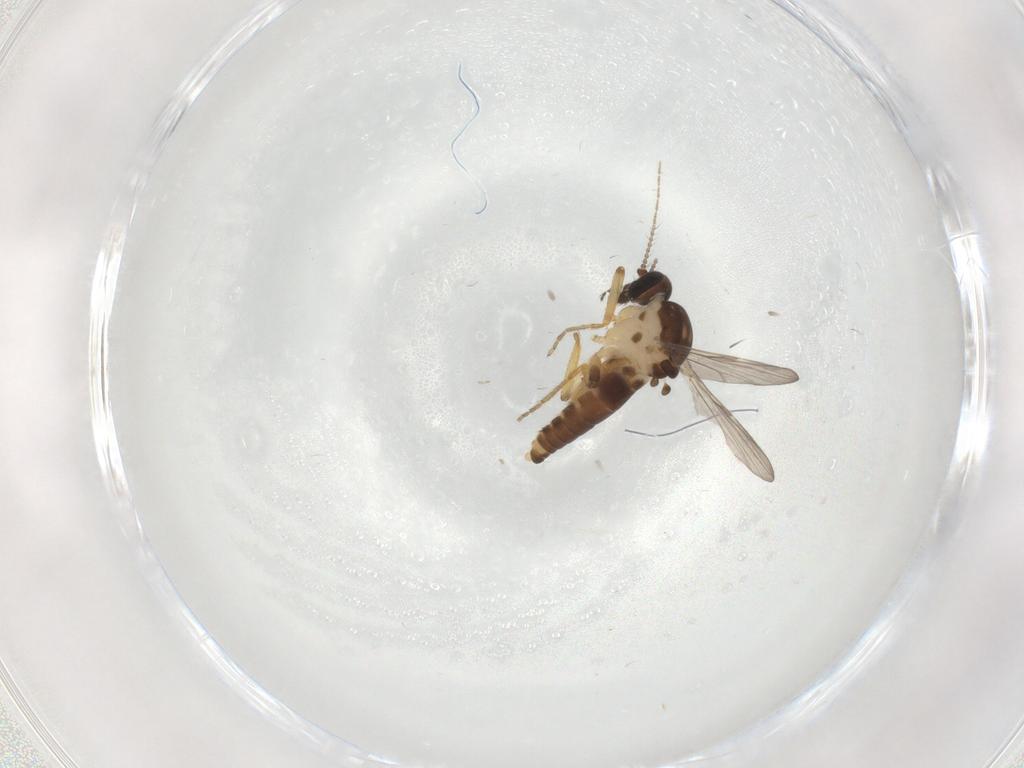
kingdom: Animalia
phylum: Arthropoda
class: Insecta
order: Diptera
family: Ceratopogonidae
